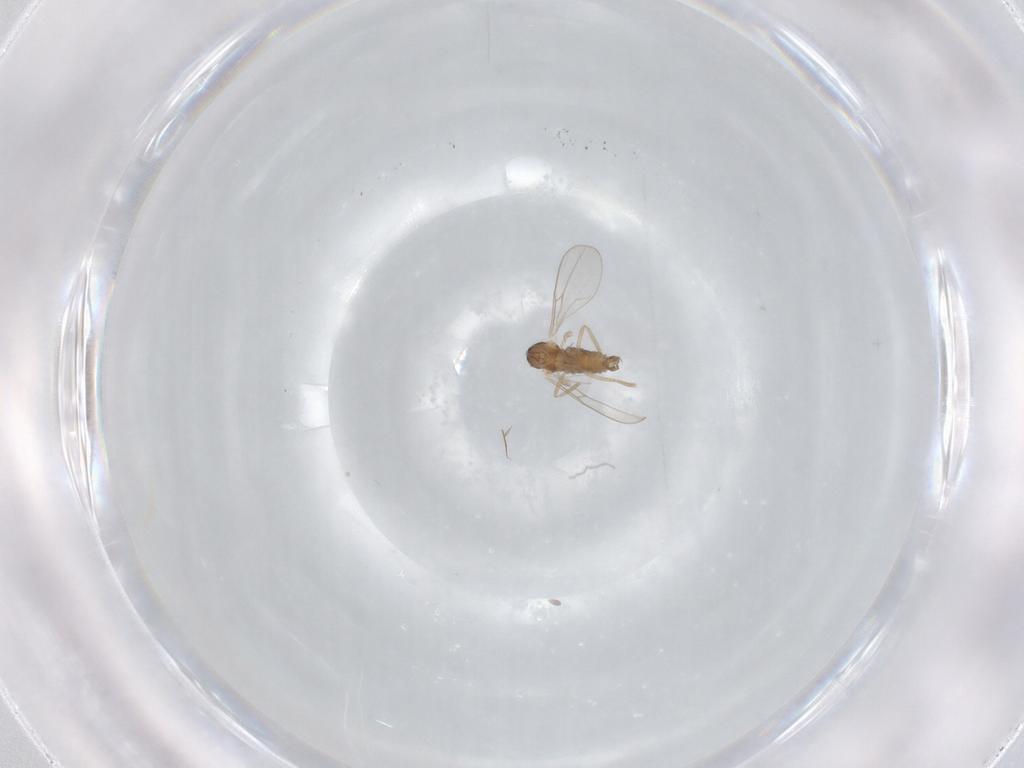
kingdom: Animalia
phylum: Arthropoda
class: Insecta
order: Diptera
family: Cecidomyiidae
